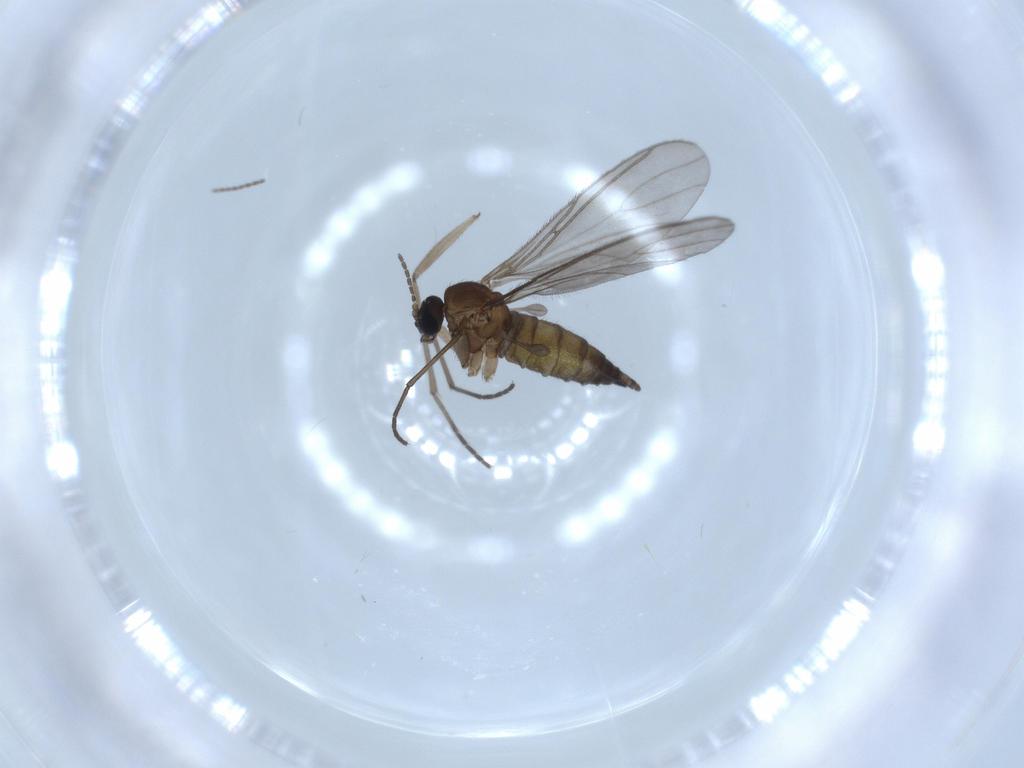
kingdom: Animalia
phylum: Arthropoda
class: Insecta
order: Diptera
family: Sciaridae
